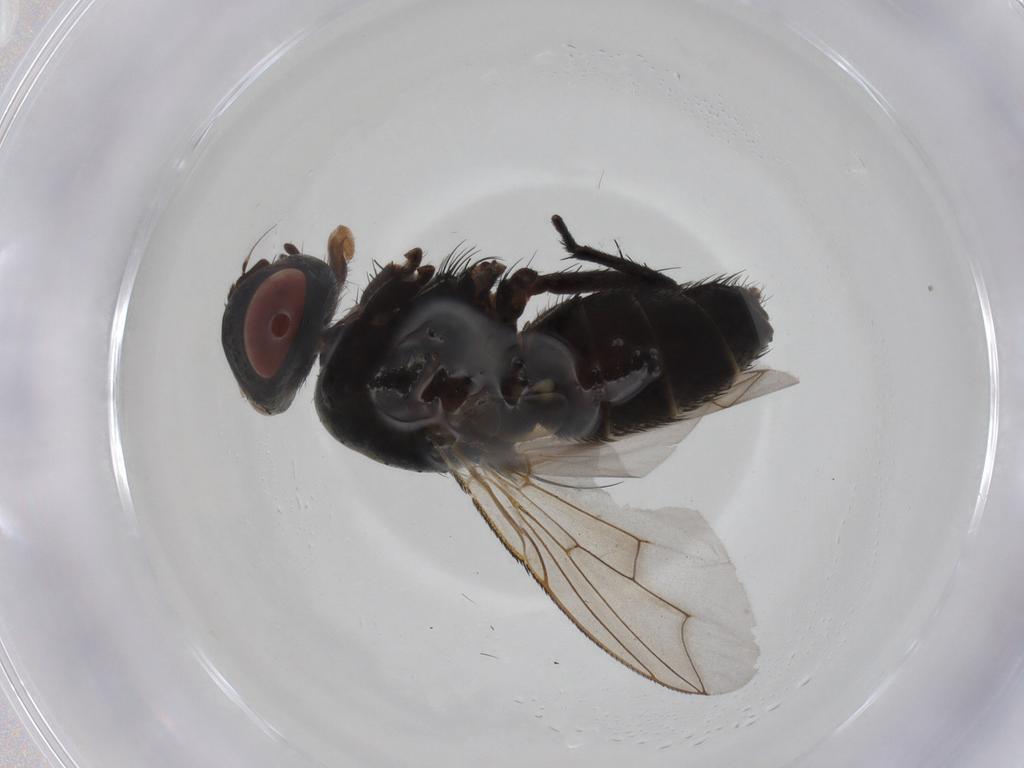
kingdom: Animalia
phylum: Arthropoda
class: Insecta
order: Diptera
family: Sarcophagidae
